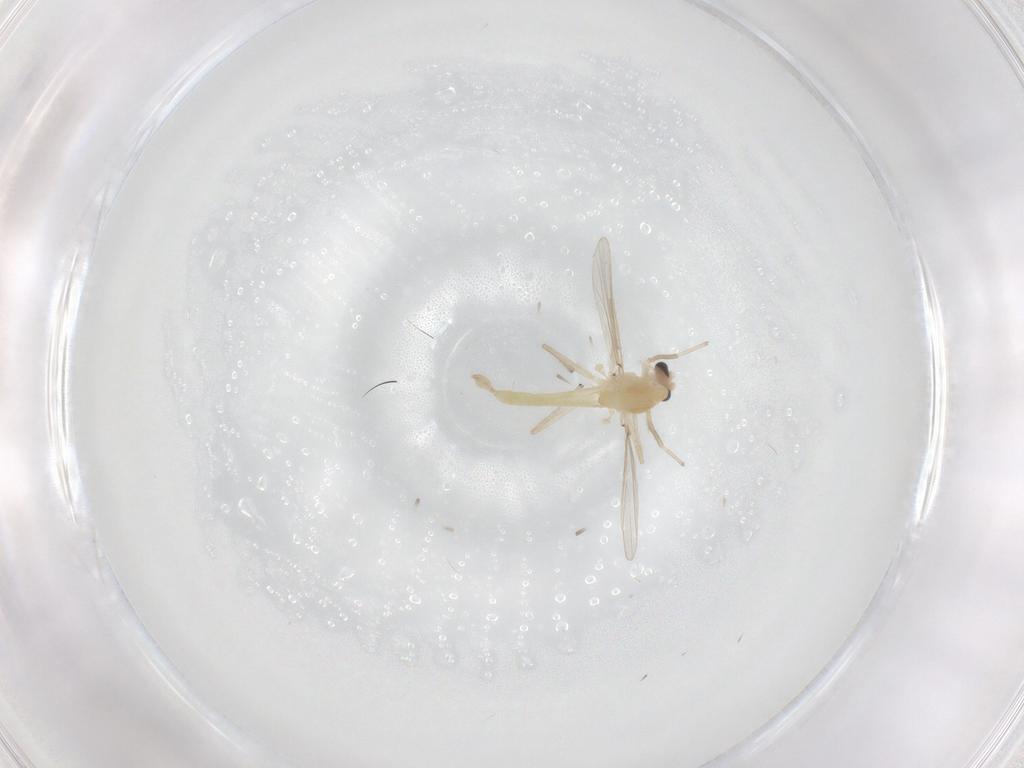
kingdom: Animalia
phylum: Arthropoda
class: Insecta
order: Diptera
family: Chironomidae
